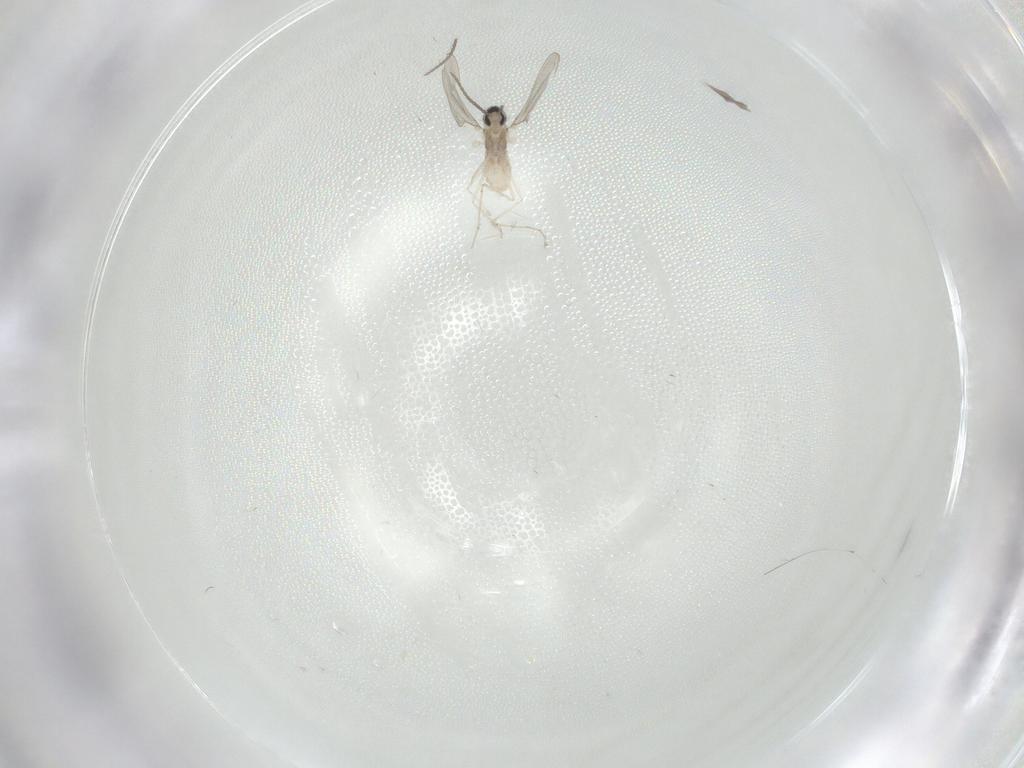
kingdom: Animalia
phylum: Arthropoda
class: Insecta
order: Diptera
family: Cecidomyiidae
